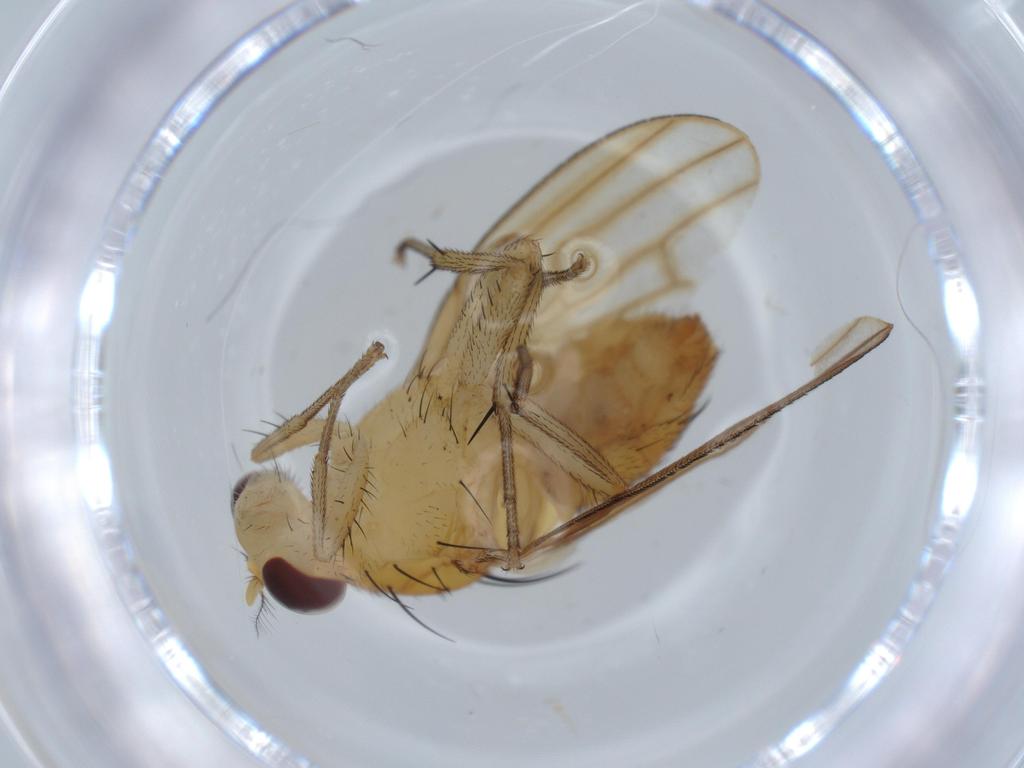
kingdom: Animalia
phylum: Arthropoda
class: Insecta
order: Diptera
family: Lauxaniidae
